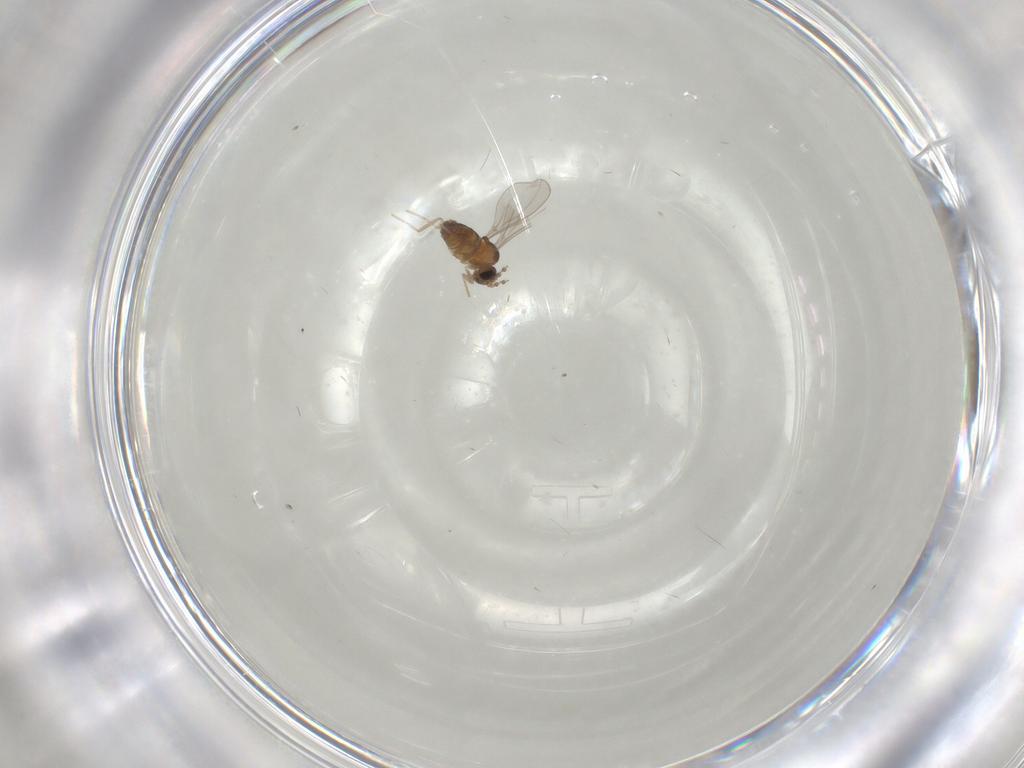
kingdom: Animalia
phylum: Arthropoda
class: Insecta
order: Diptera
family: Cecidomyiidae
